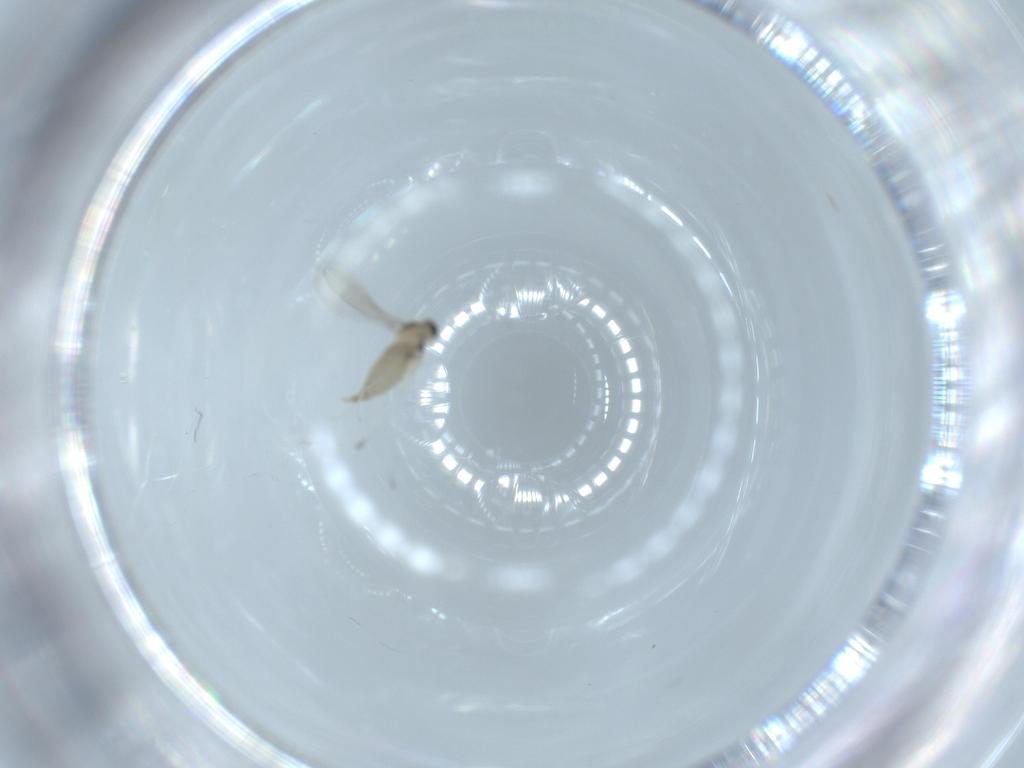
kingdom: Animalia
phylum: Arthropoda
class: Insecta
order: Diptera
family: Cecidomyiidae
